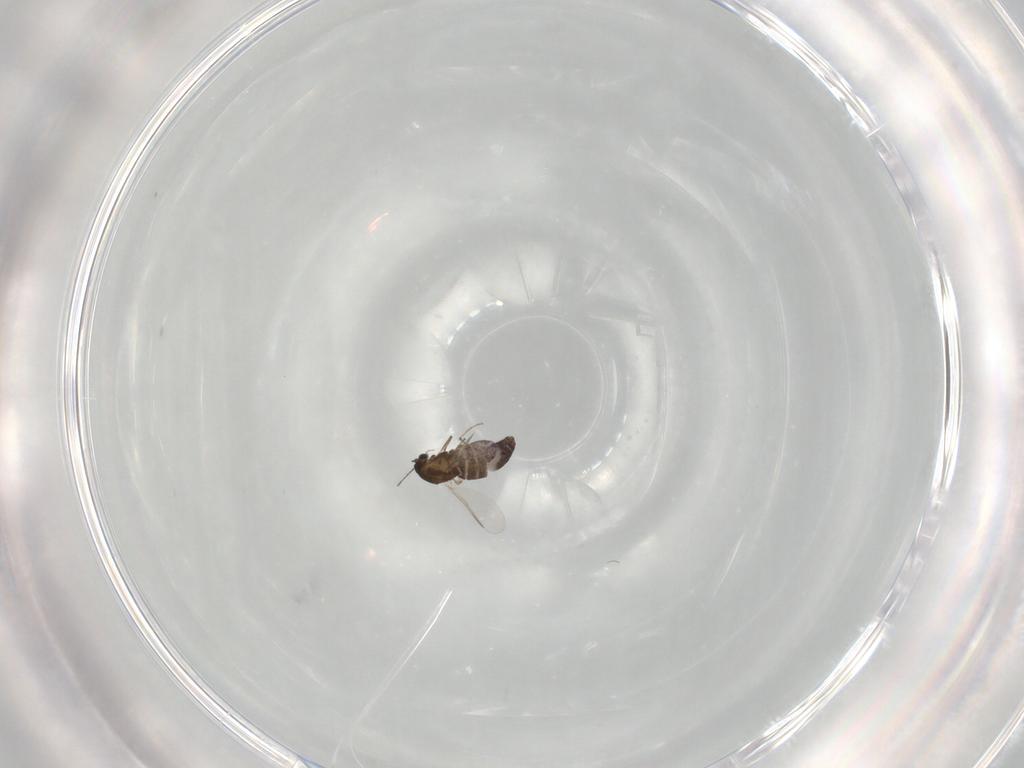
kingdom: Animalia
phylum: Arthropoda
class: Insecta
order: Diptera
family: Chironomidae
